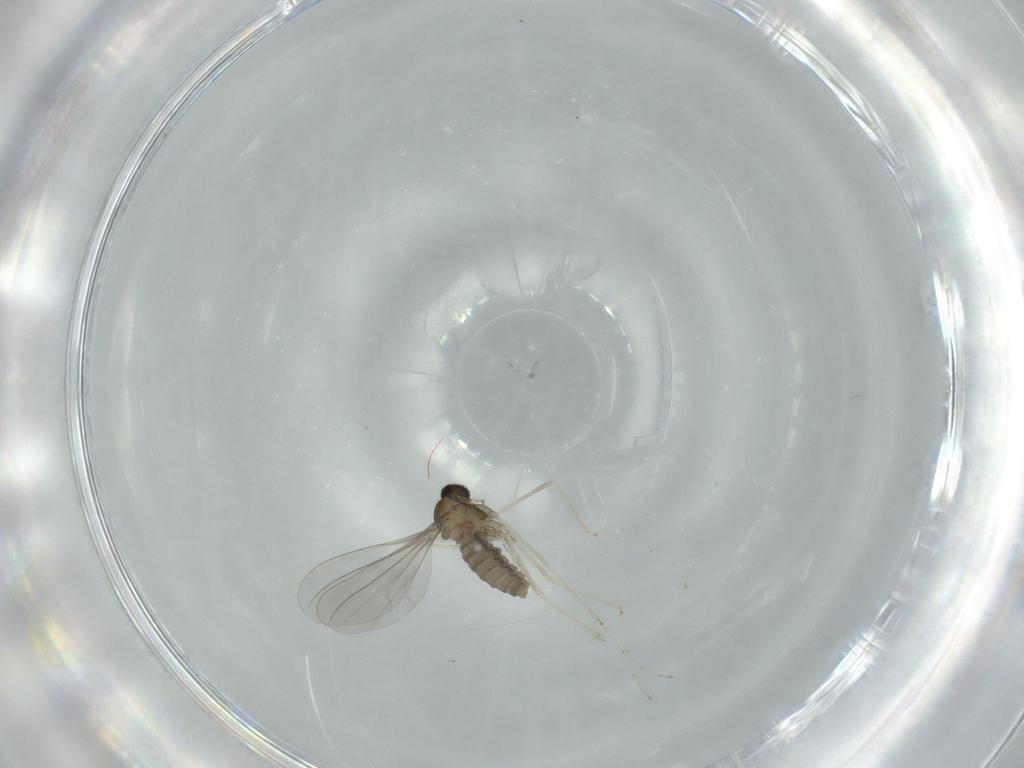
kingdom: Animalia
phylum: Arthropoda
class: Insecta
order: Diptera
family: Cecidomyiidae
